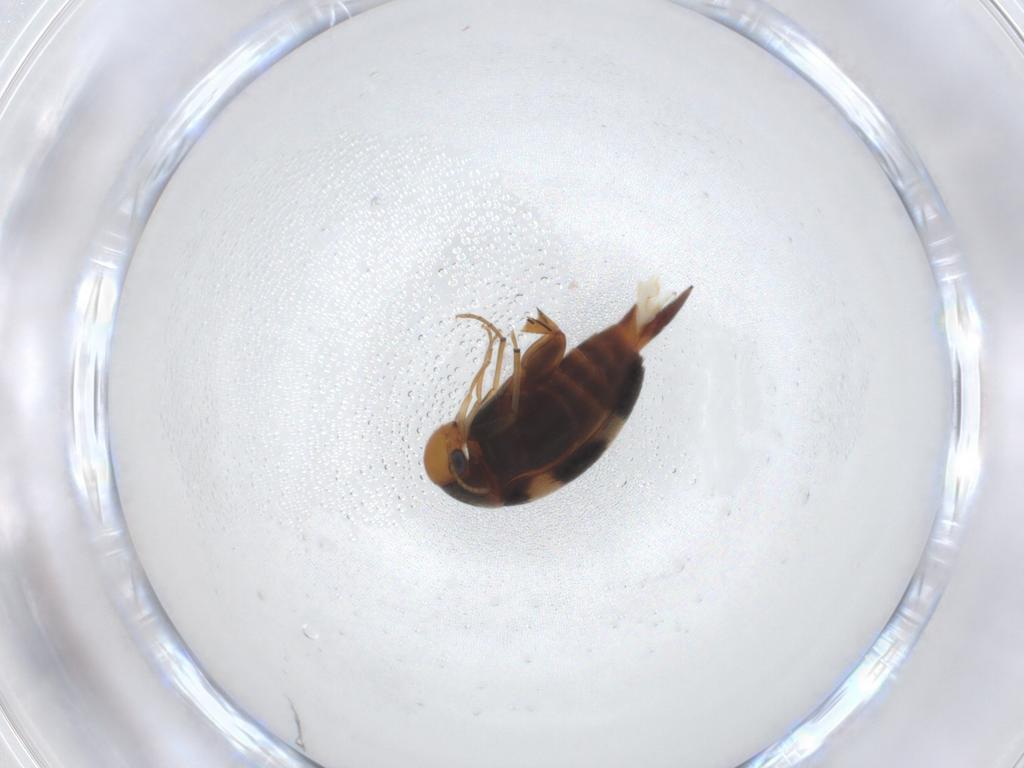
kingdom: Animalia
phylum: Arthropoda
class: Insecta
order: Coleoptera
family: Mordellidae
